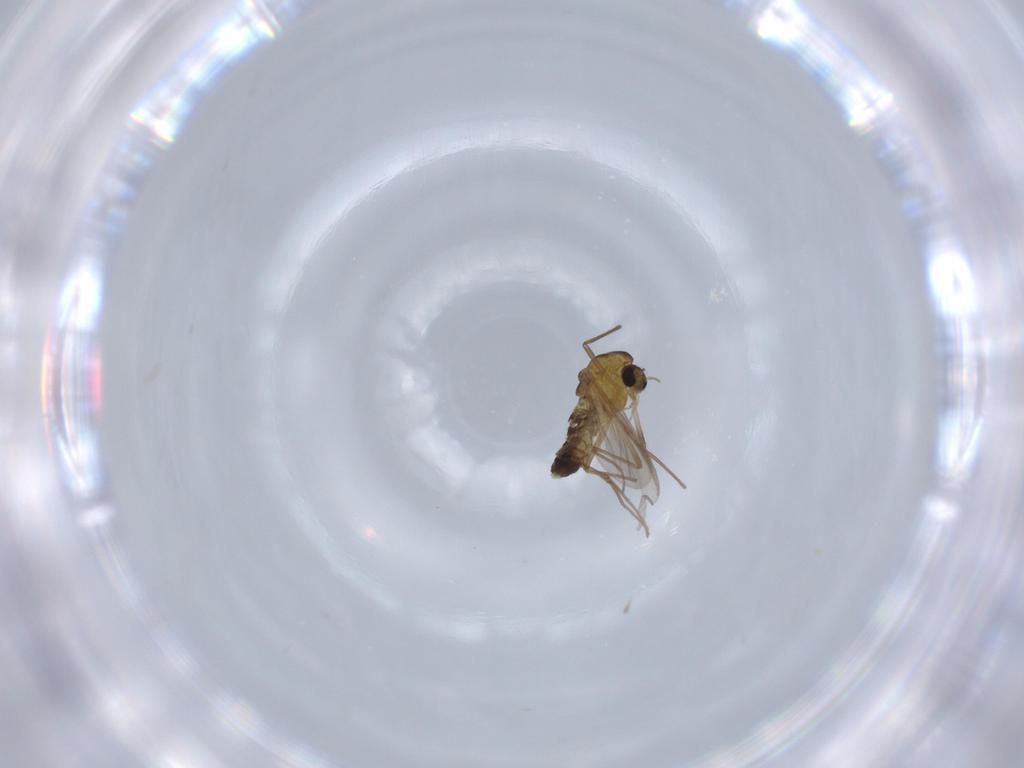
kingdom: Animalia
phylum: Arthropoda
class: Insecta
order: Diptera
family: Chironomidae
